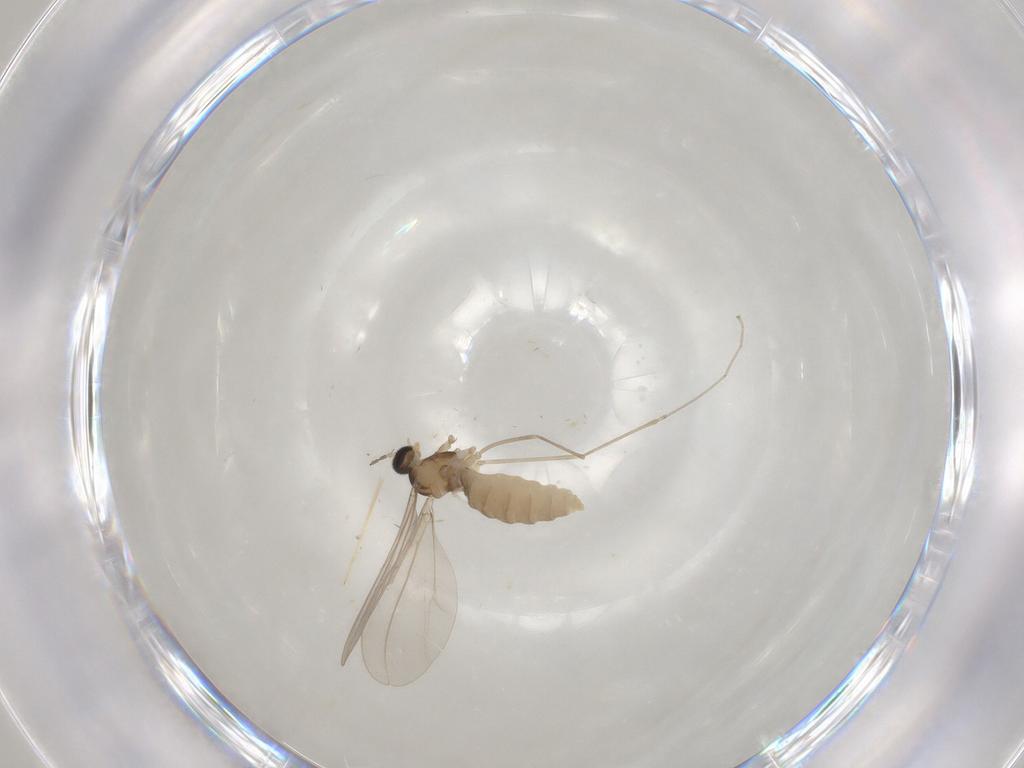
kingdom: Animalia
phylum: Arthropoda
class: Insecta
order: Diptera
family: Cecidomyiidae
